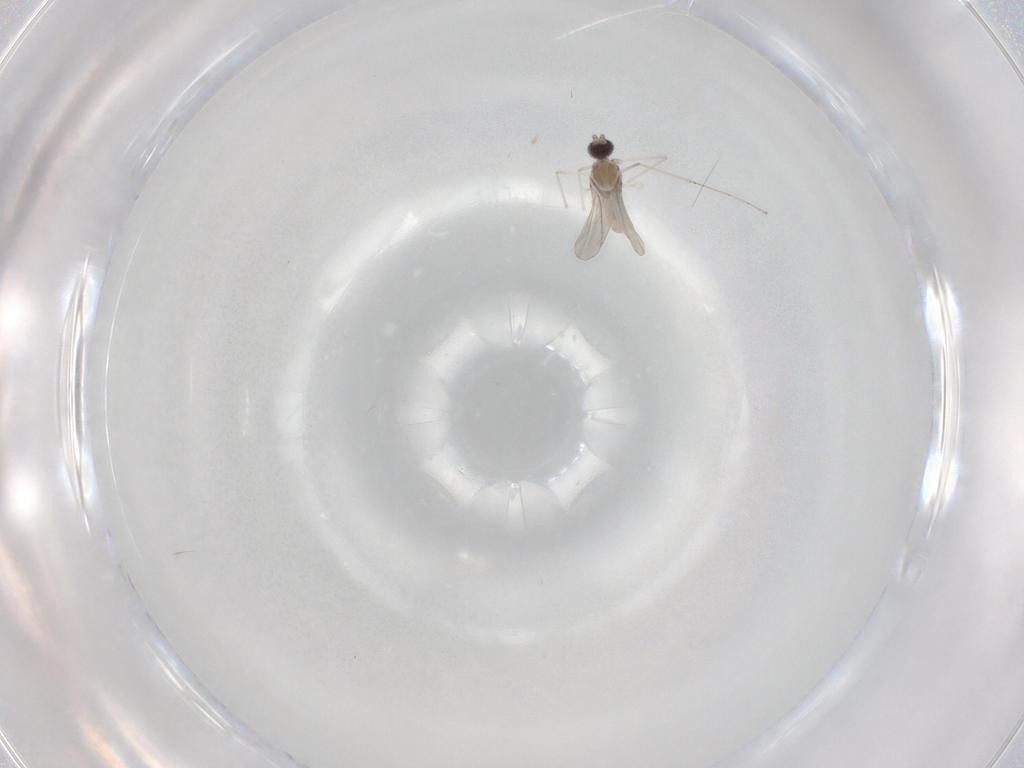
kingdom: Animalia
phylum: Arthropoda
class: Insecta
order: Diptera
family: Cecidomyiidae
